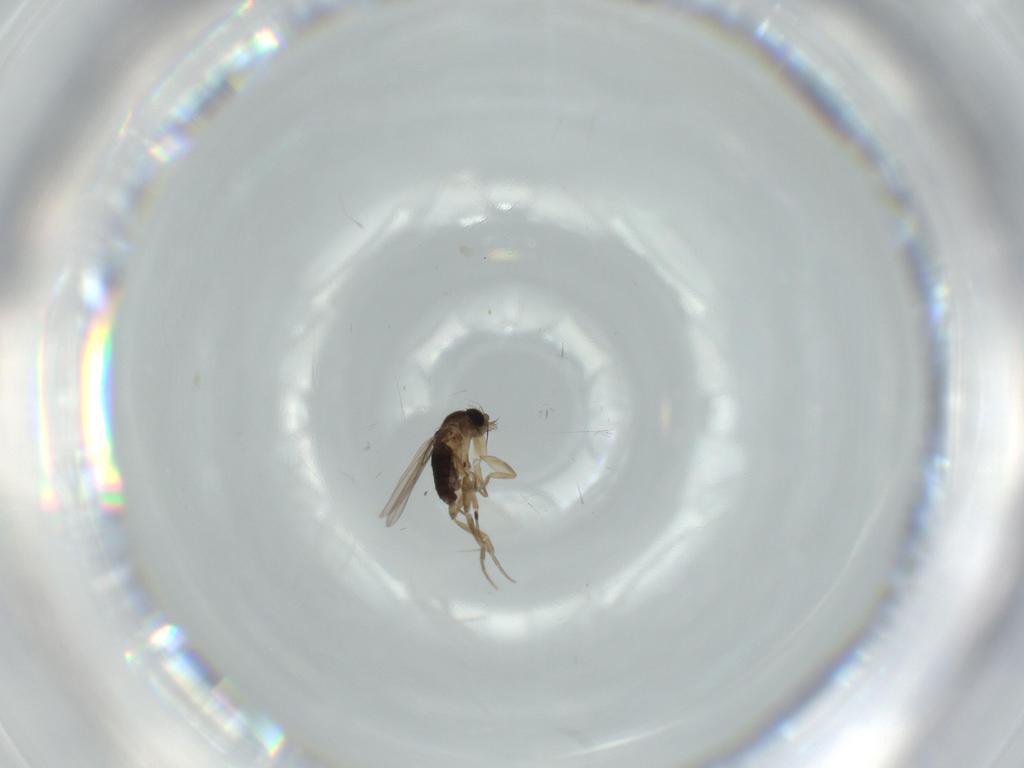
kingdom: Animalia
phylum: Arthropoda
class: Insecta
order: Diptera
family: Phoridae
